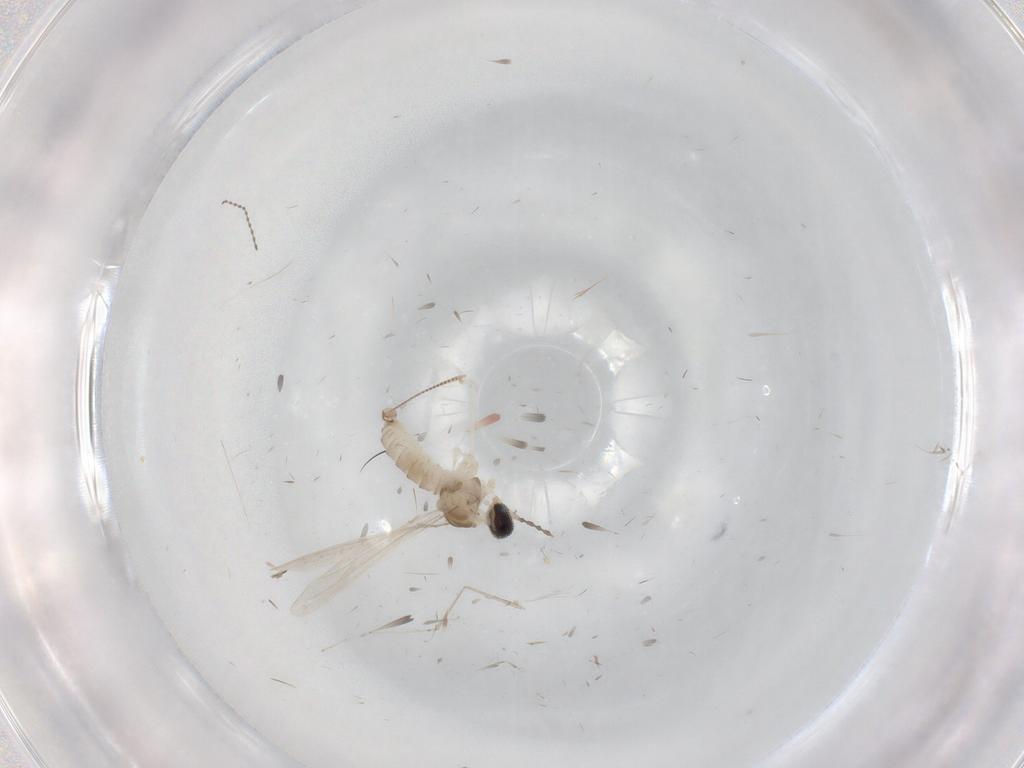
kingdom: Animalia
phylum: Arthropoda
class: Insecta
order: Diptera
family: Cecidomyiidae
